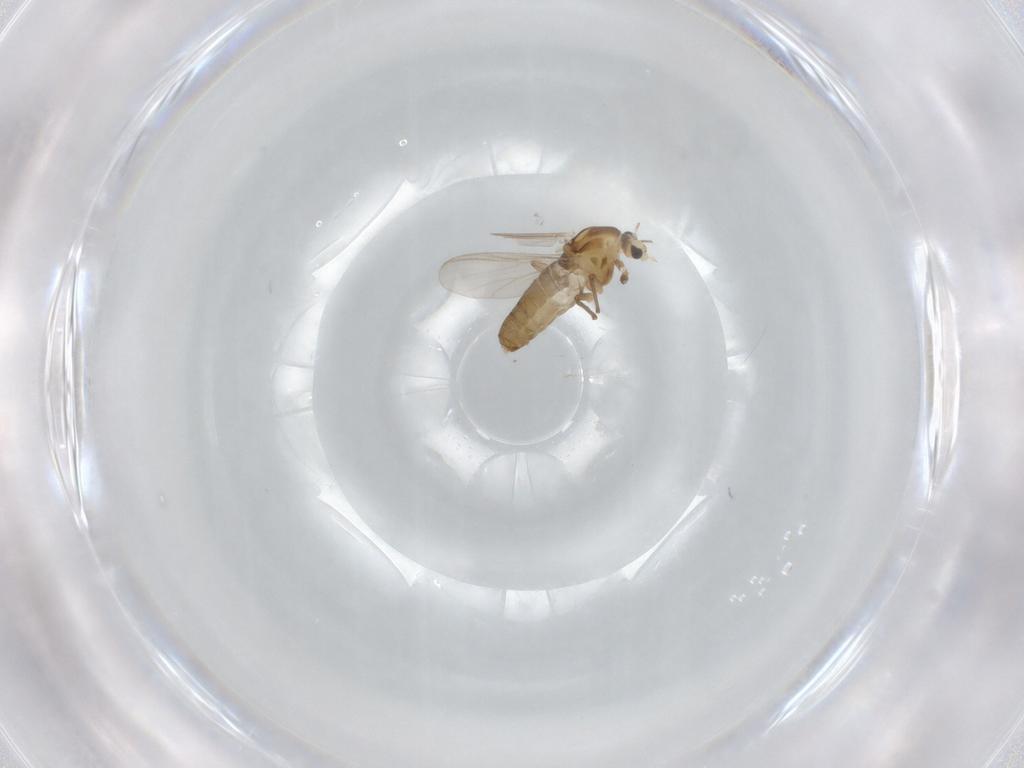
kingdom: Animalia
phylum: Arthropoda
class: Insecta
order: Diptera
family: Chironomidae
